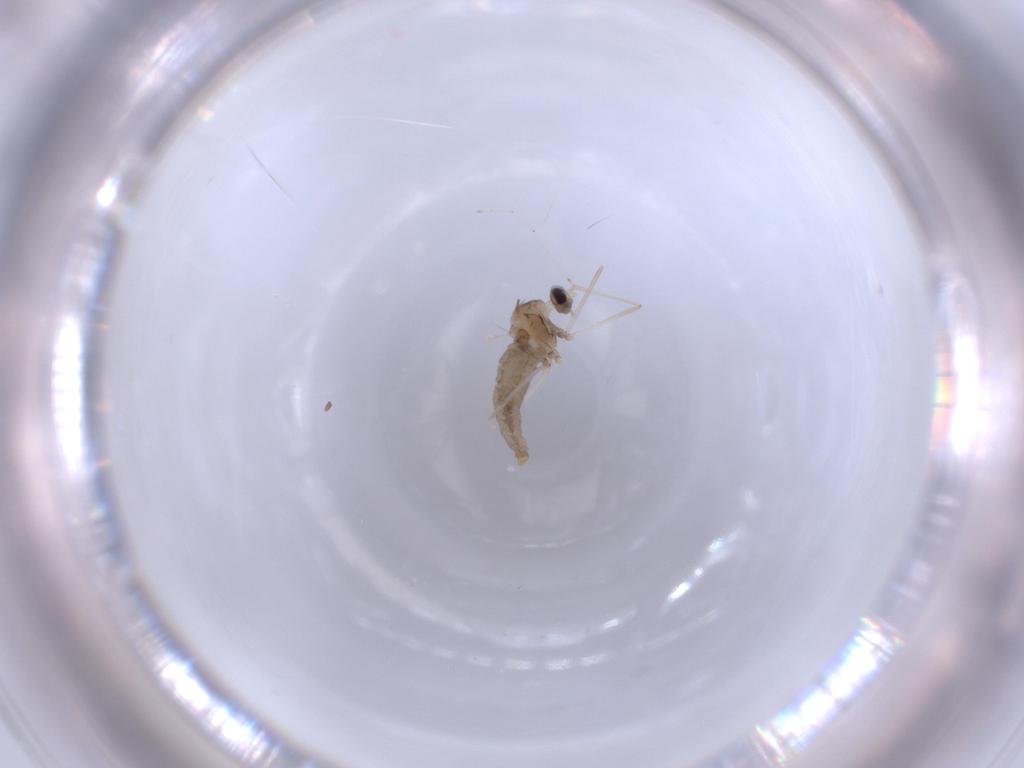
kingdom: Animalia
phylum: Arthropoda
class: Insecta
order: Diptera
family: Cecidomyiidae
